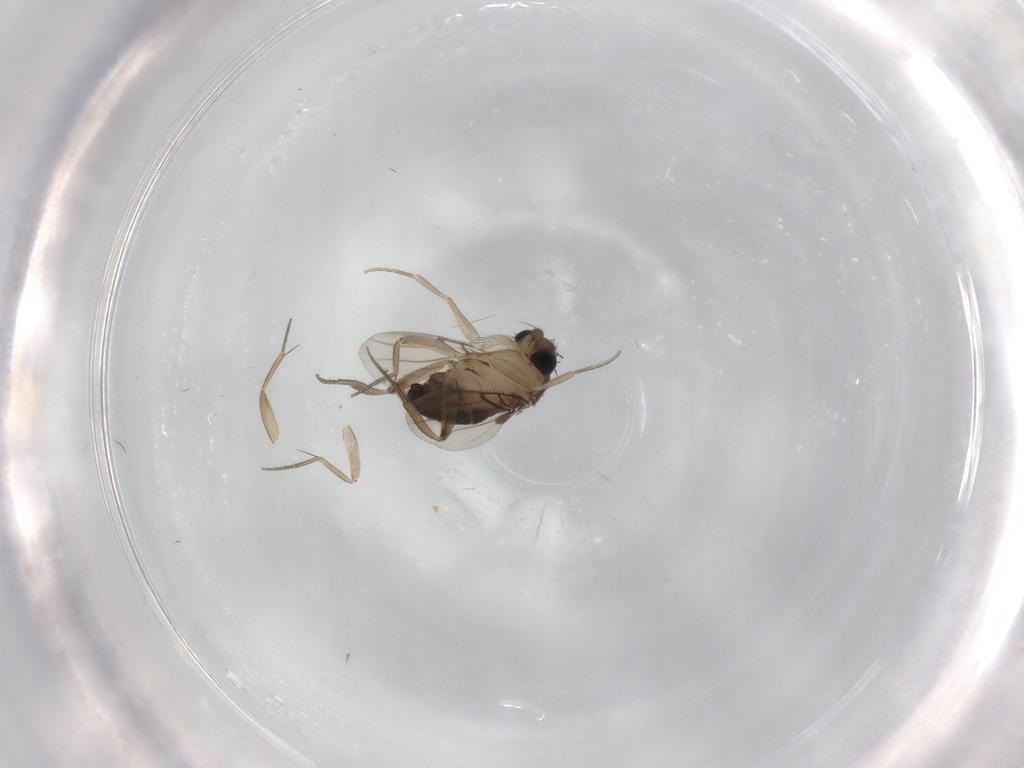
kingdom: Animalia
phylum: Arthropoda
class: Insecta
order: Diptera
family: Phoridae
